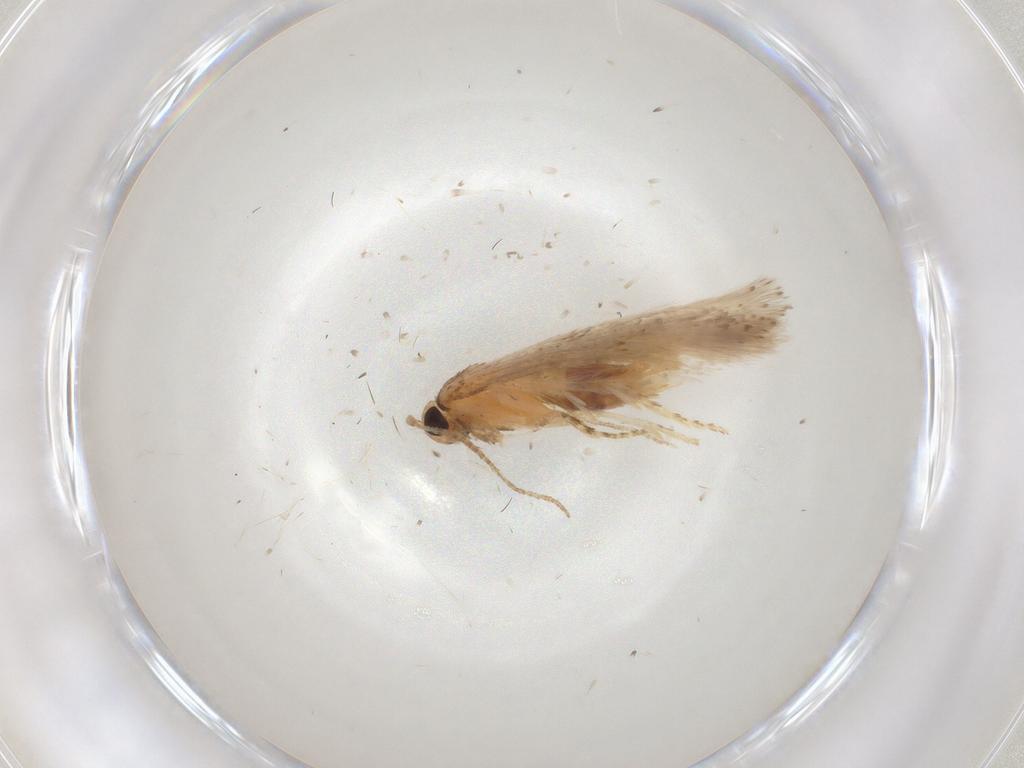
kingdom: Animalia
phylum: Arthropoda
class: Insecta
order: Lepidoptera
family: Gelechiidae
